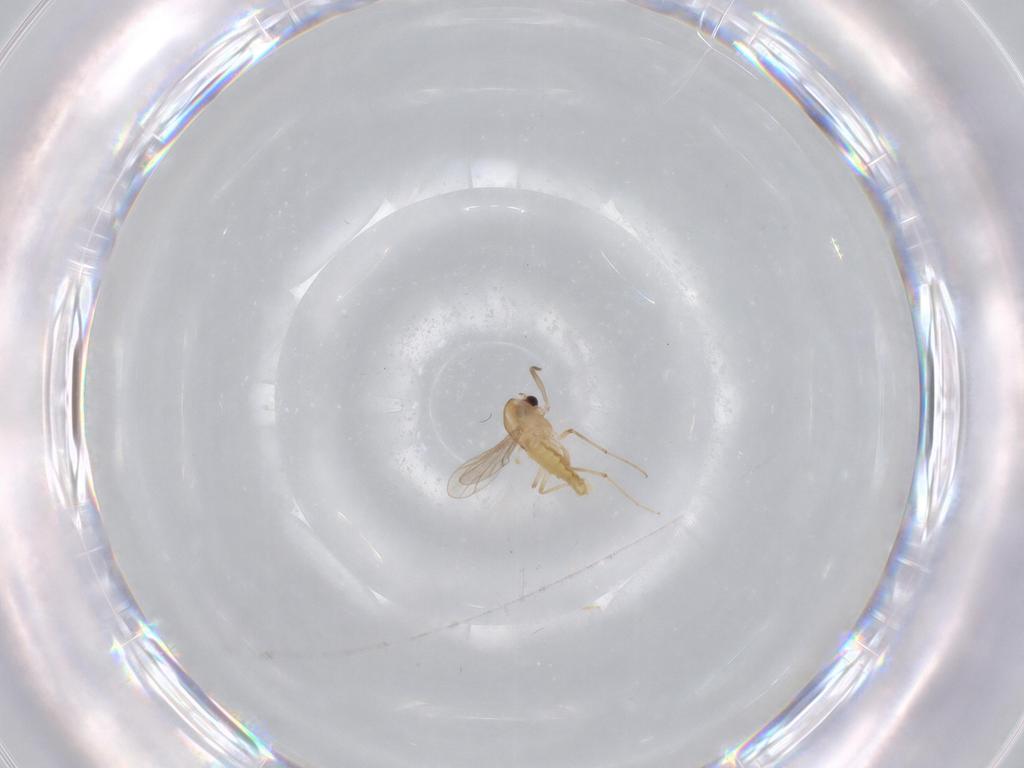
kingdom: Animalia
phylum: Arthropoda
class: Insecta
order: Diptera
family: Chironomidae
